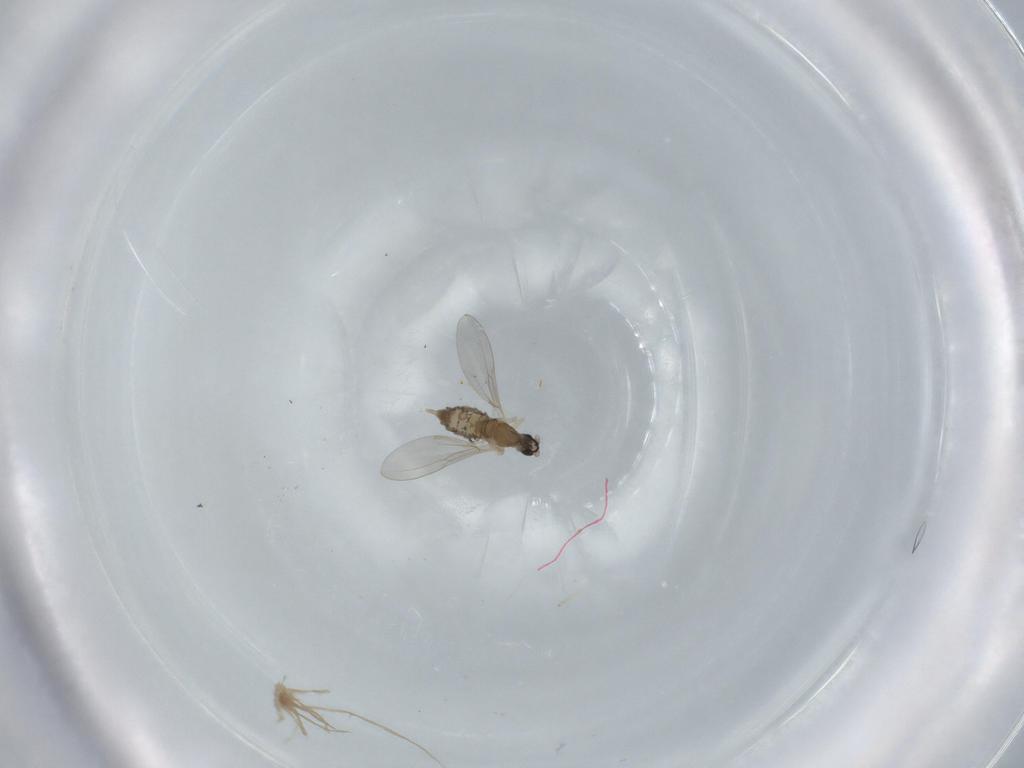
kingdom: Animalia
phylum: Arthropoda
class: Insecta
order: Diptera
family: Cecidomyiidae
